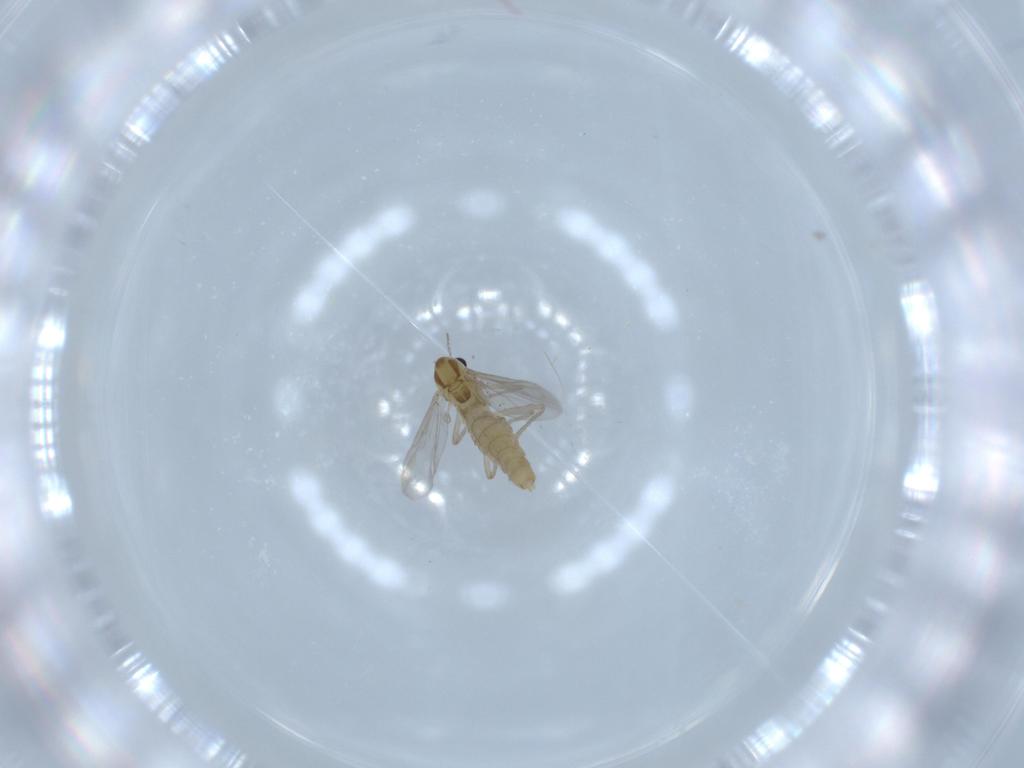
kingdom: Animalia
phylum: Arthropoda
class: Insecta
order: Diptera
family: Chironomidae
